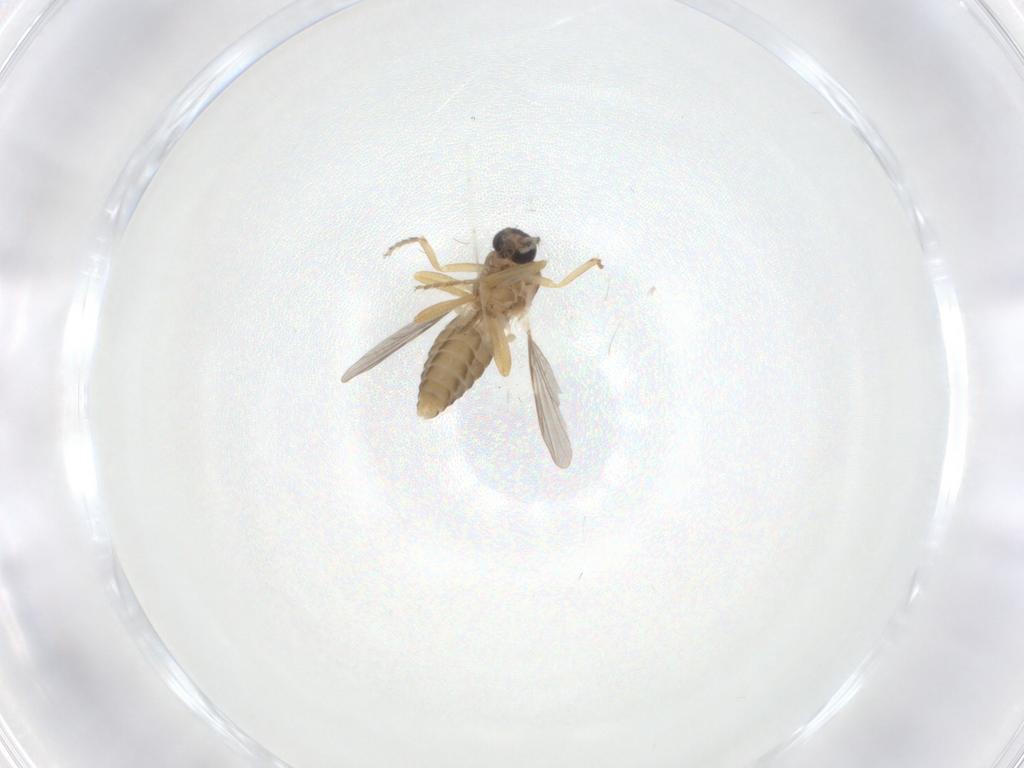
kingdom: Animalia
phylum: Arthropoda
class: Insecta
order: Diptera
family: Cecidomyiidae
